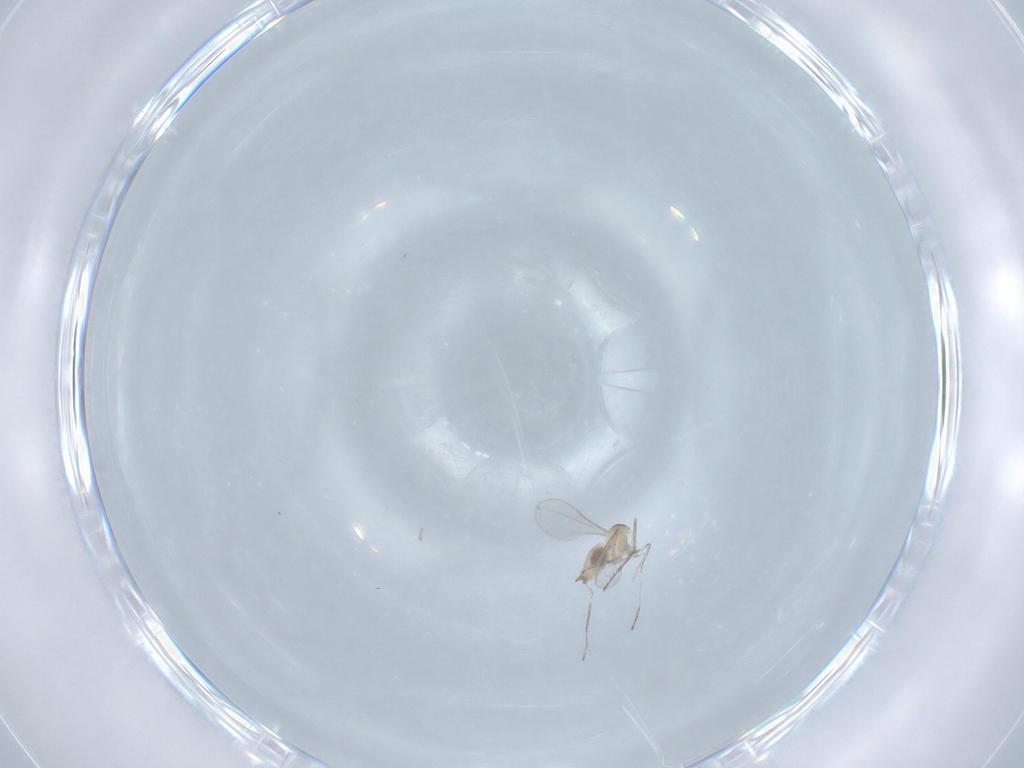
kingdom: Animalia
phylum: Arthropoda
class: Insecta
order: Diptera
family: Cecidomyiidae
